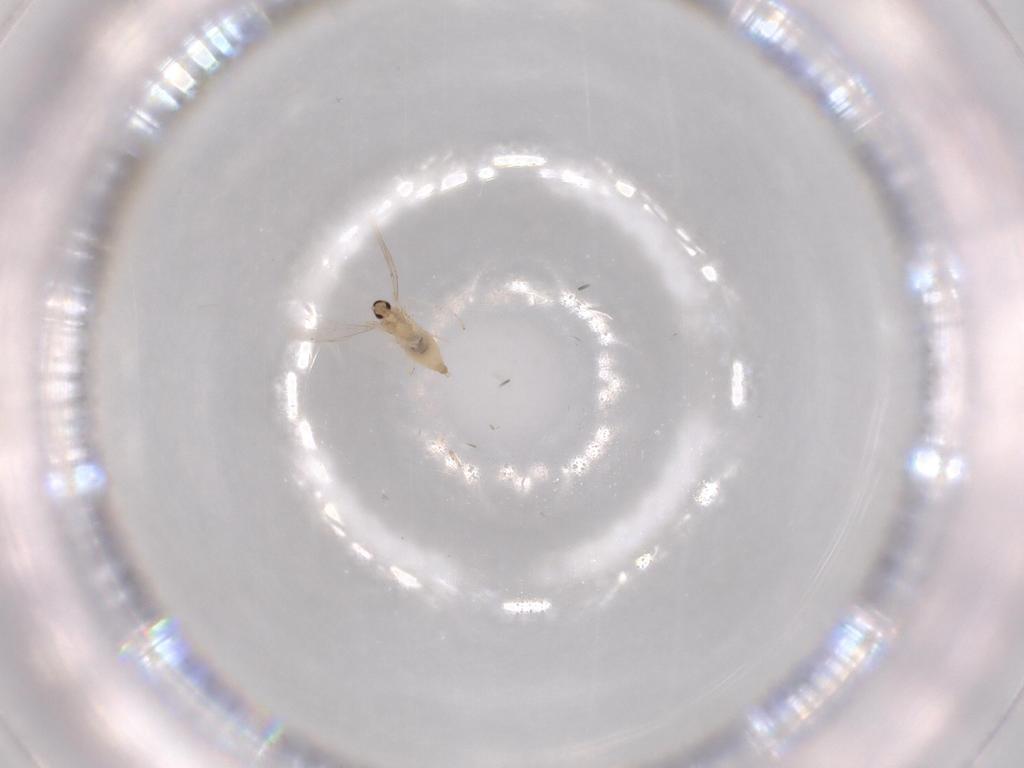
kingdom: Animalia
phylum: Arthropoda
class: Insecta
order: Diptera
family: Cecidomyiidae
